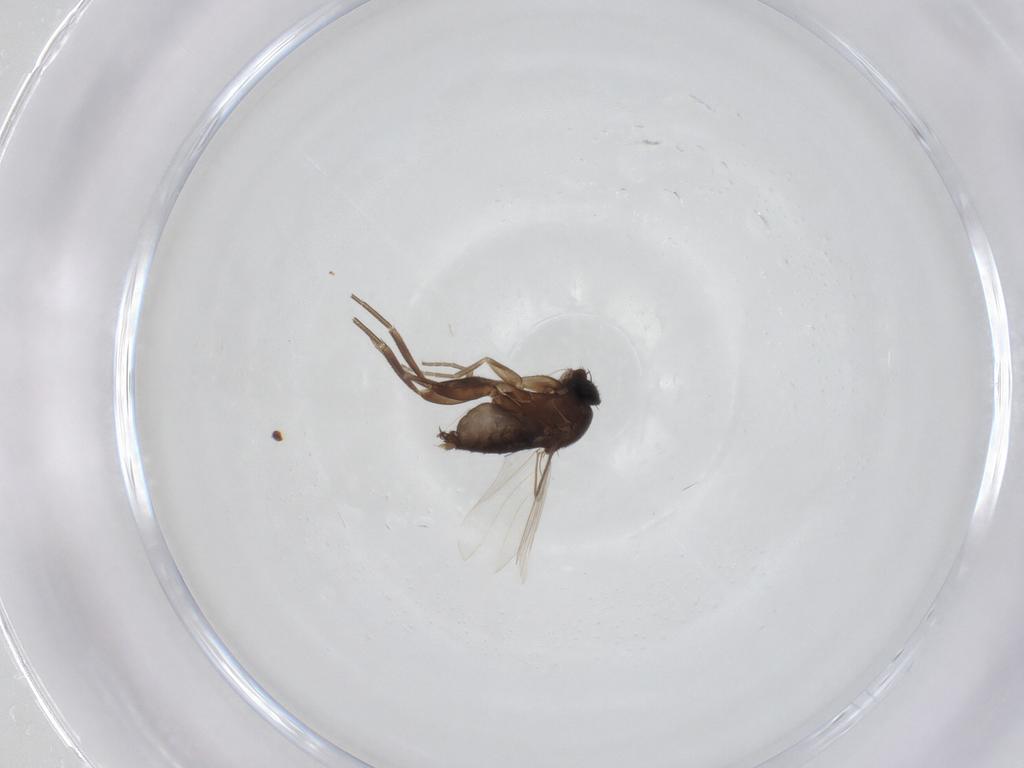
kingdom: Animalia
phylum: Arthropoda
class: Insecta
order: Diptera
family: Phoridae
